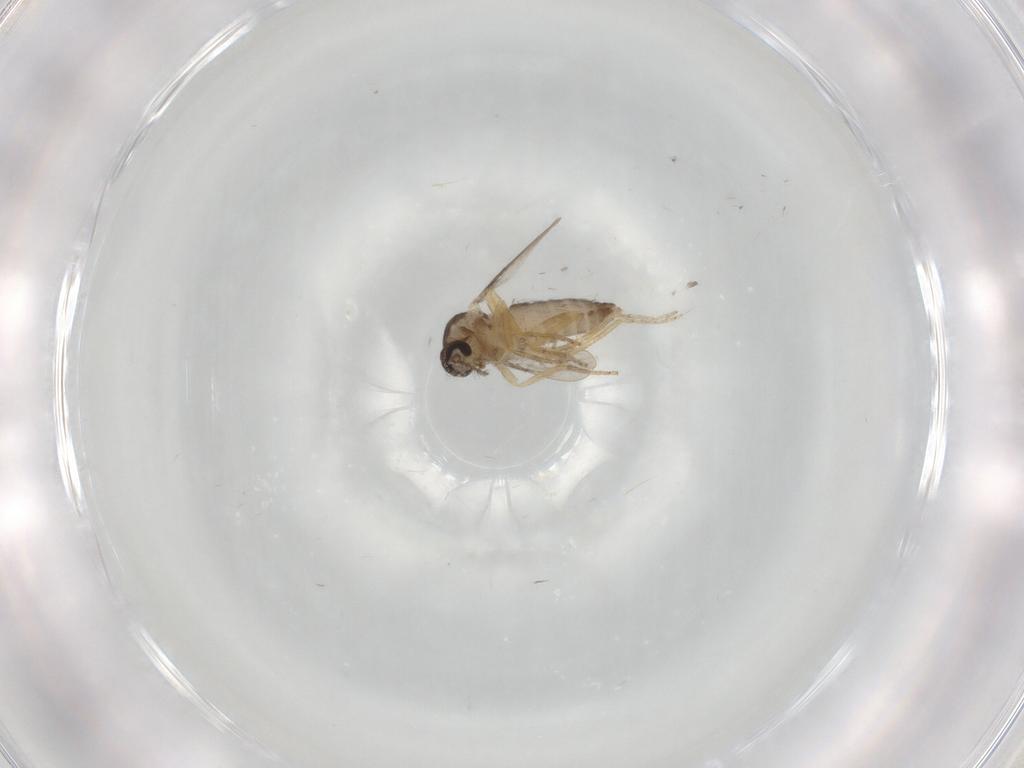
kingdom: Animalia
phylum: Arthropoda
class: Insecta
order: Diptera
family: Ceratopogonidae
